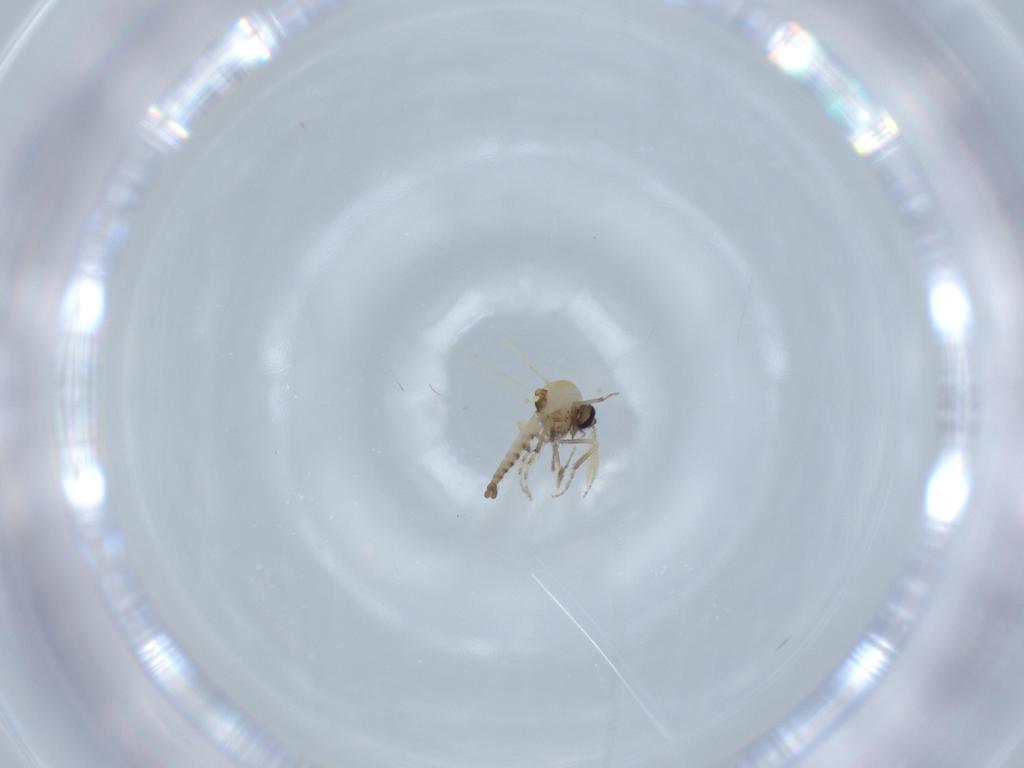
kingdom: Animalia
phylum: Arthropoda
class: Insecta
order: Diptera
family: Ceratopogonidae
